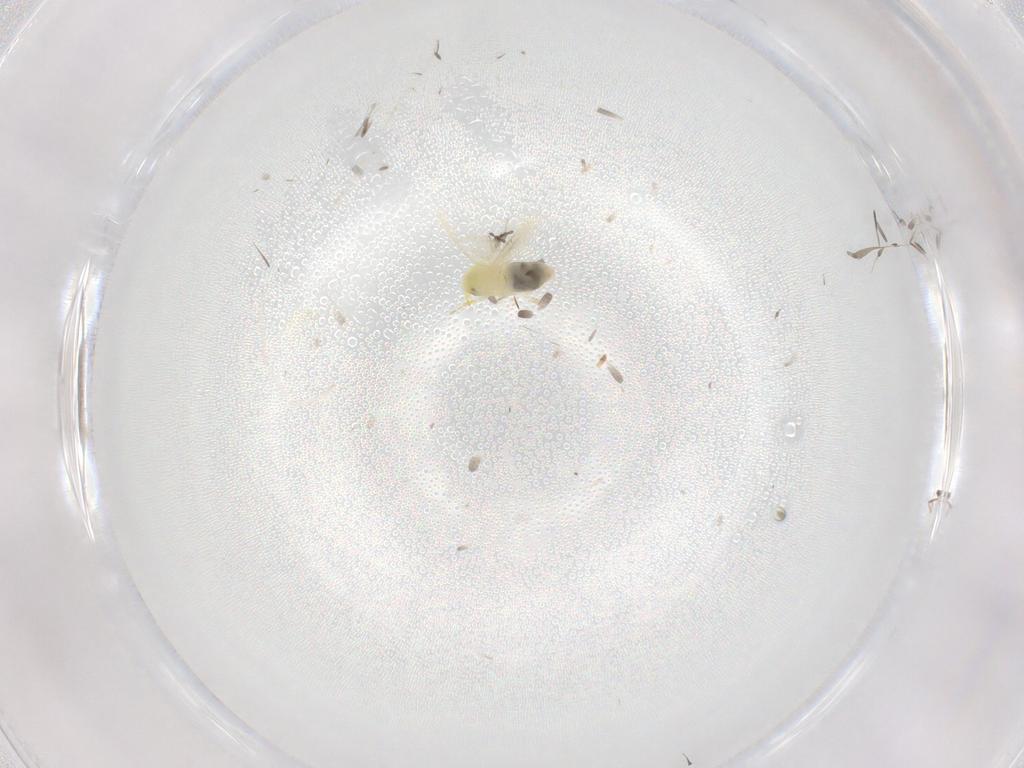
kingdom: Animalia
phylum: Arthropoda
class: Insecta
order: Hemiptera
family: Aleyrodidae
